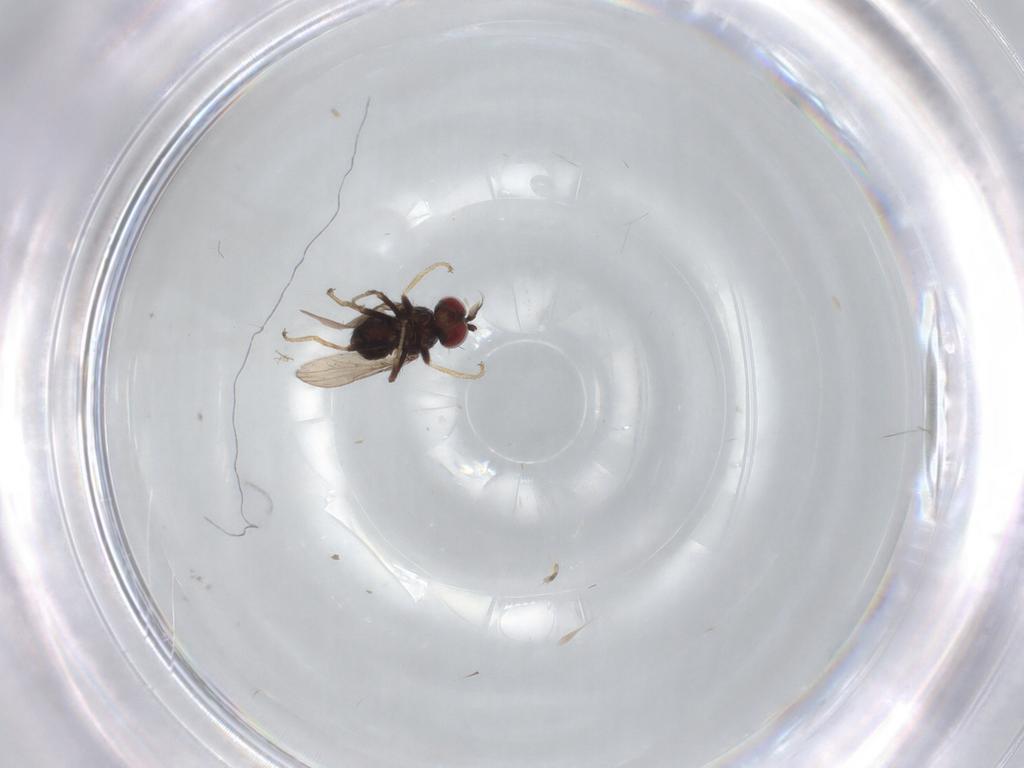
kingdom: Animalia
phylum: Arthropoda
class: Insecta
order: Diptera
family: Ephydridae
